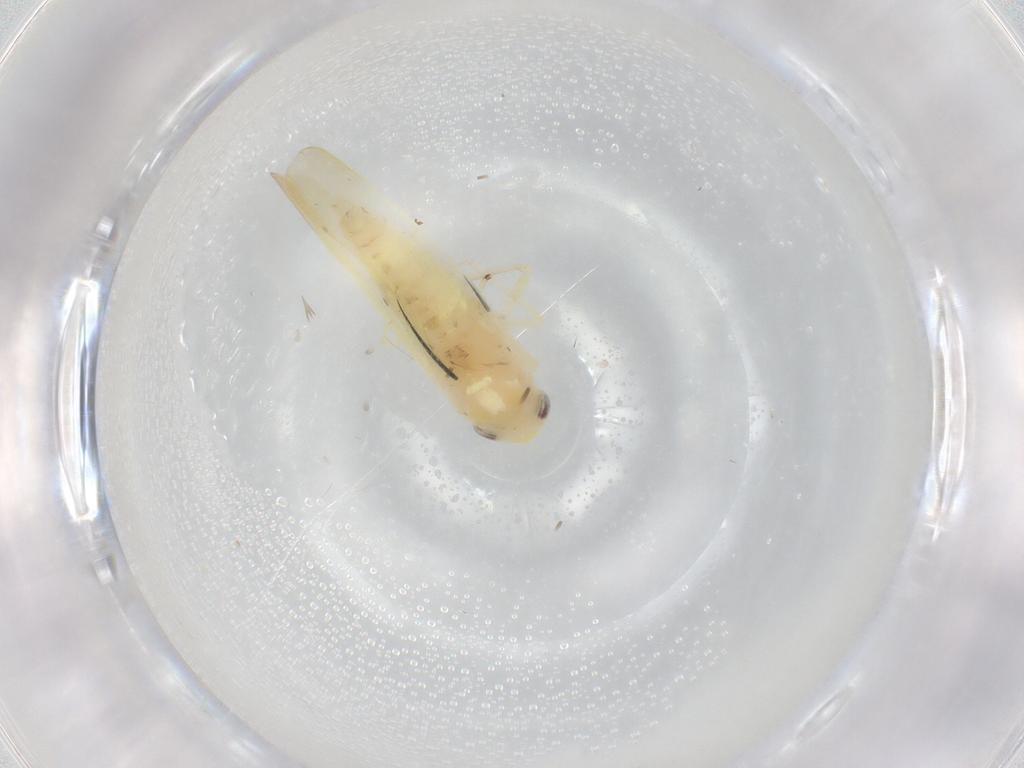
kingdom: Animalia
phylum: Arthropoda
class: Insecta
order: Hemiptera
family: Cicadellidae
